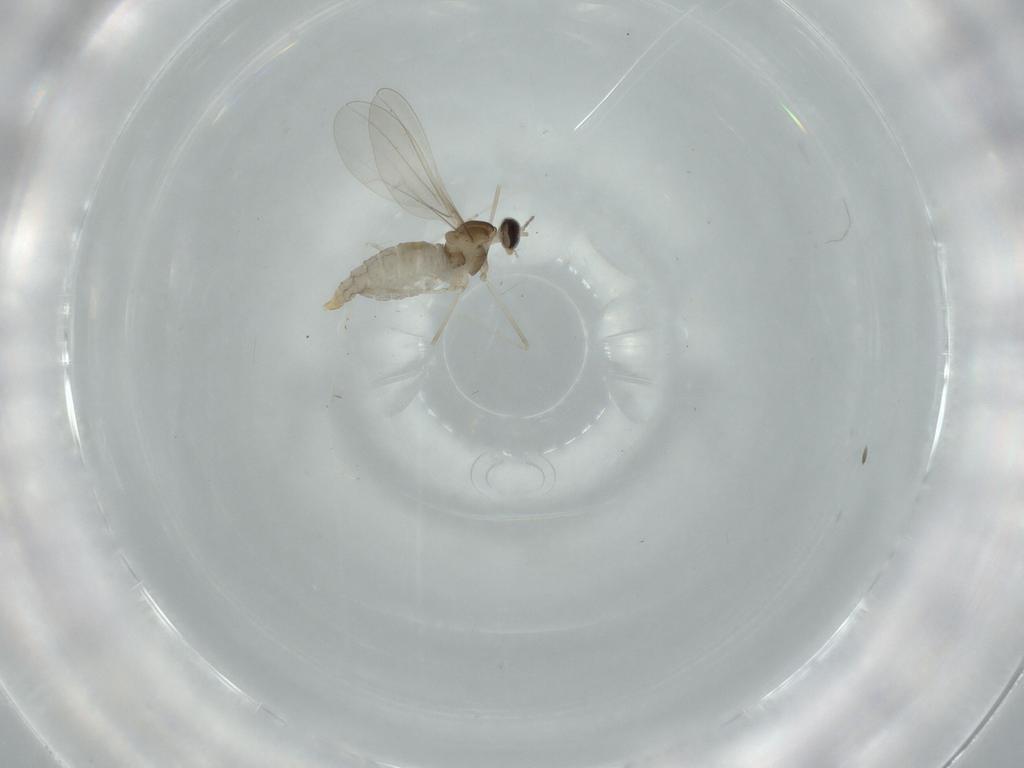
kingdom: Animalia
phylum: Arthropoda
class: Insecta
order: Diptera
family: Cecidomyiidae
